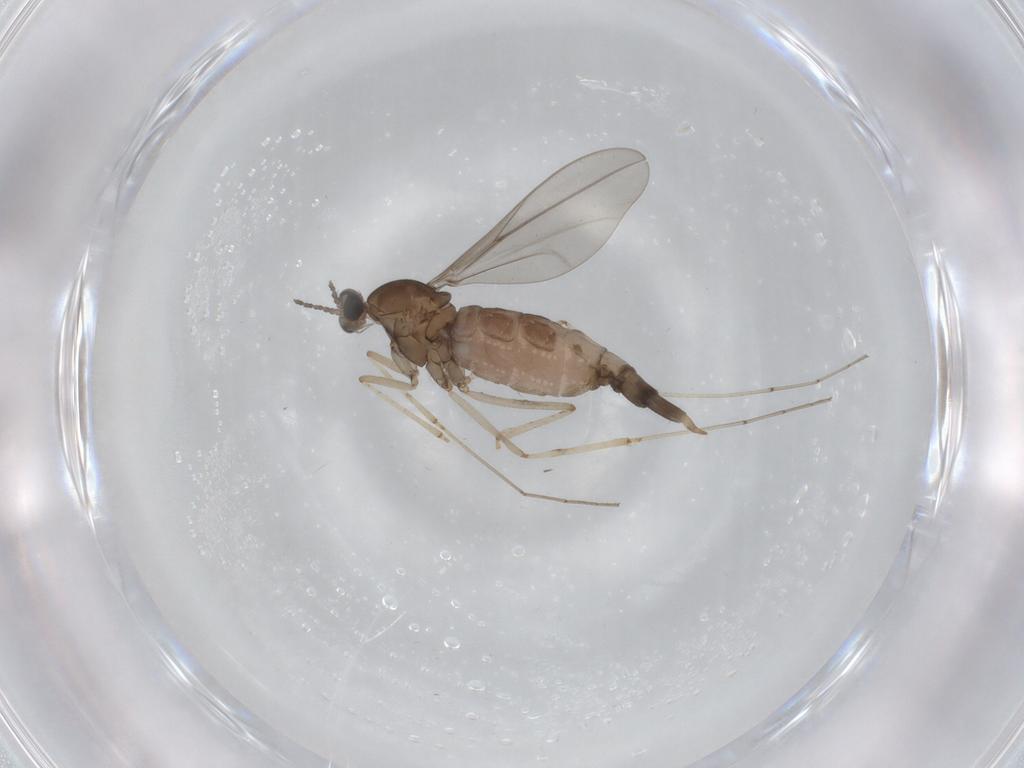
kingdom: Animalia
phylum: Arthropoda
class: Insecta
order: Diptera
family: Cecidomyiidae
